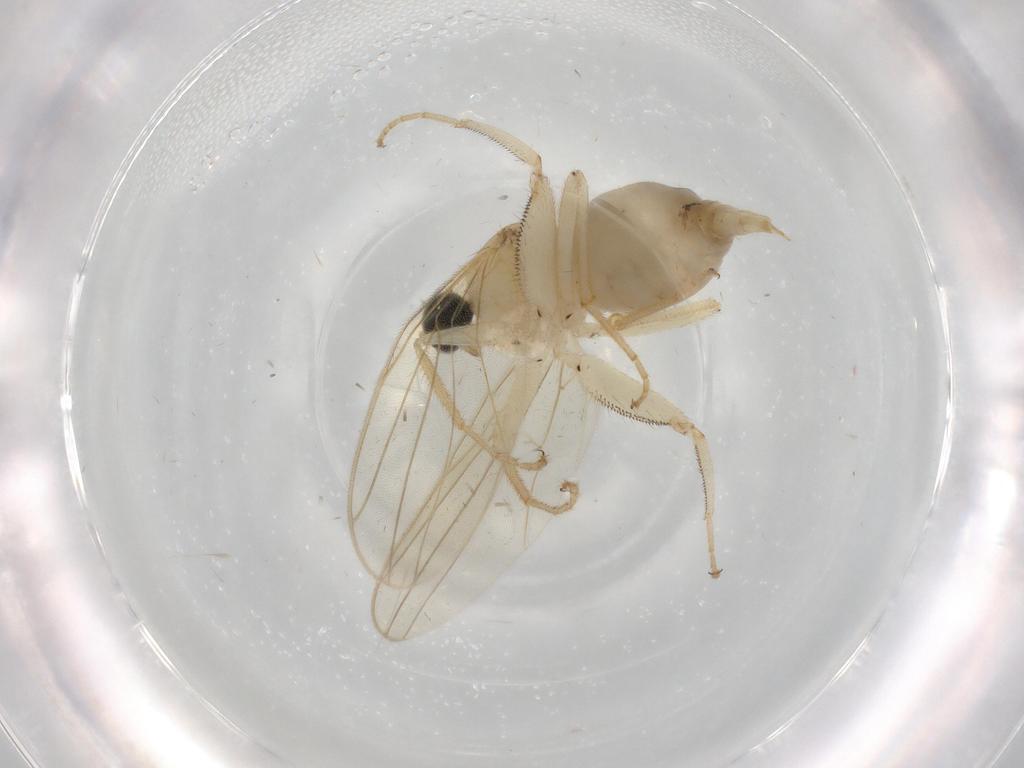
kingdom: Animalia
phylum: Arthropoda
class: Insecta
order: Diptera
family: Hybotidae
